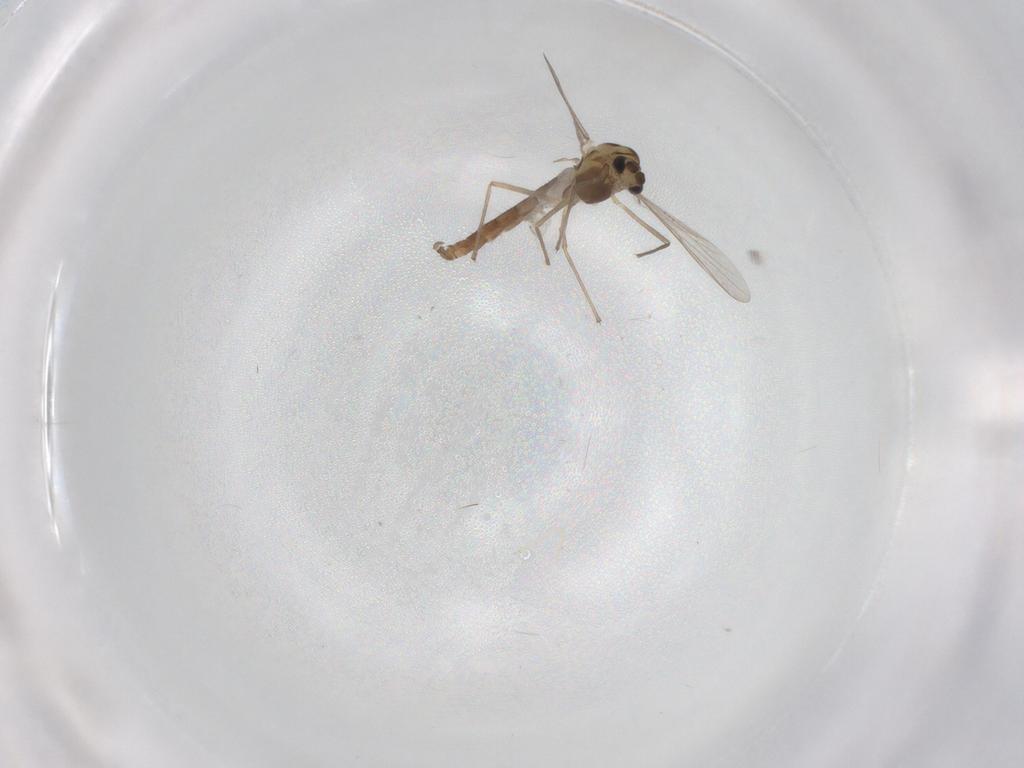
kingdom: Animalia
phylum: Arthropoda
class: Insecta
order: Diptera
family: Chironomidae
